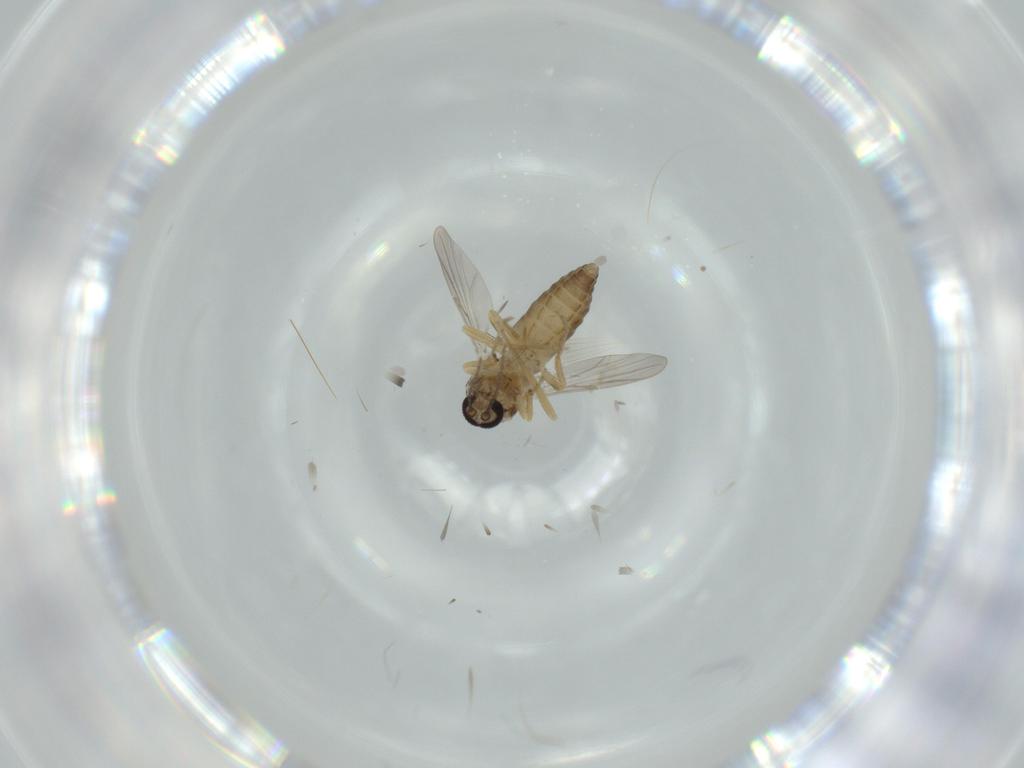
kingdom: Animalia
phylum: Arthropoda
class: Insecta
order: Diptera
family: Ceratopogonidae
